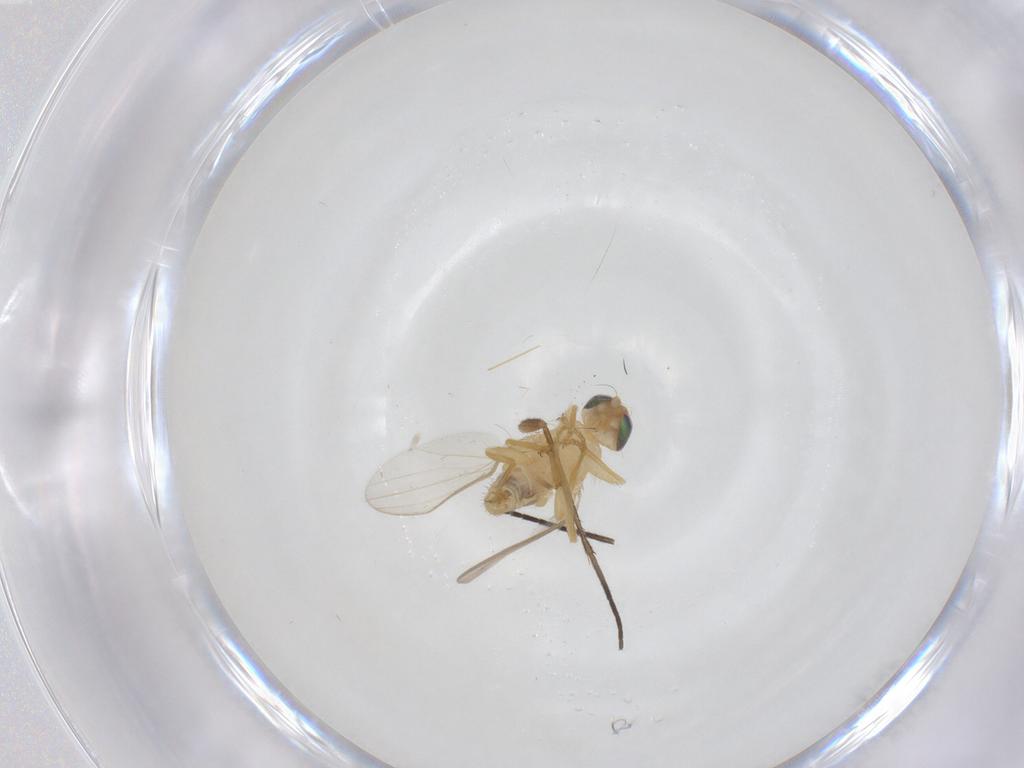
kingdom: Animalia
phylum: Arthropoda
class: Insecta
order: Diptera
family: Chyromyidae
